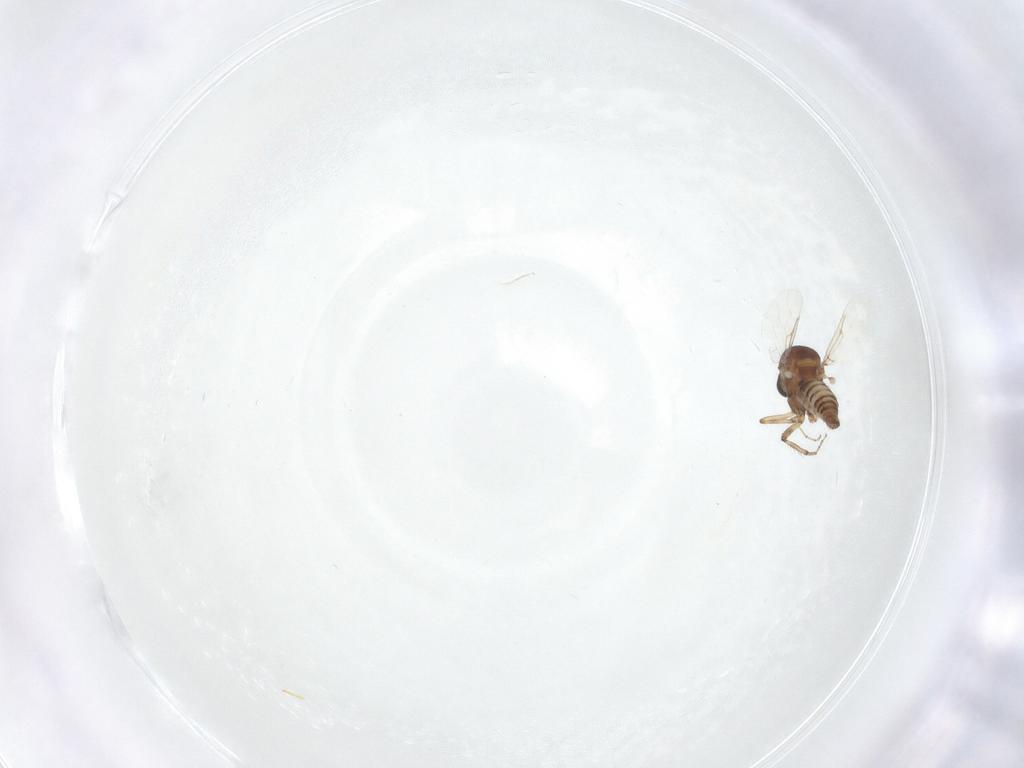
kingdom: Animalia
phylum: Arthropoda
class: Insecta
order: Diptera
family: Ceratopogonidae
